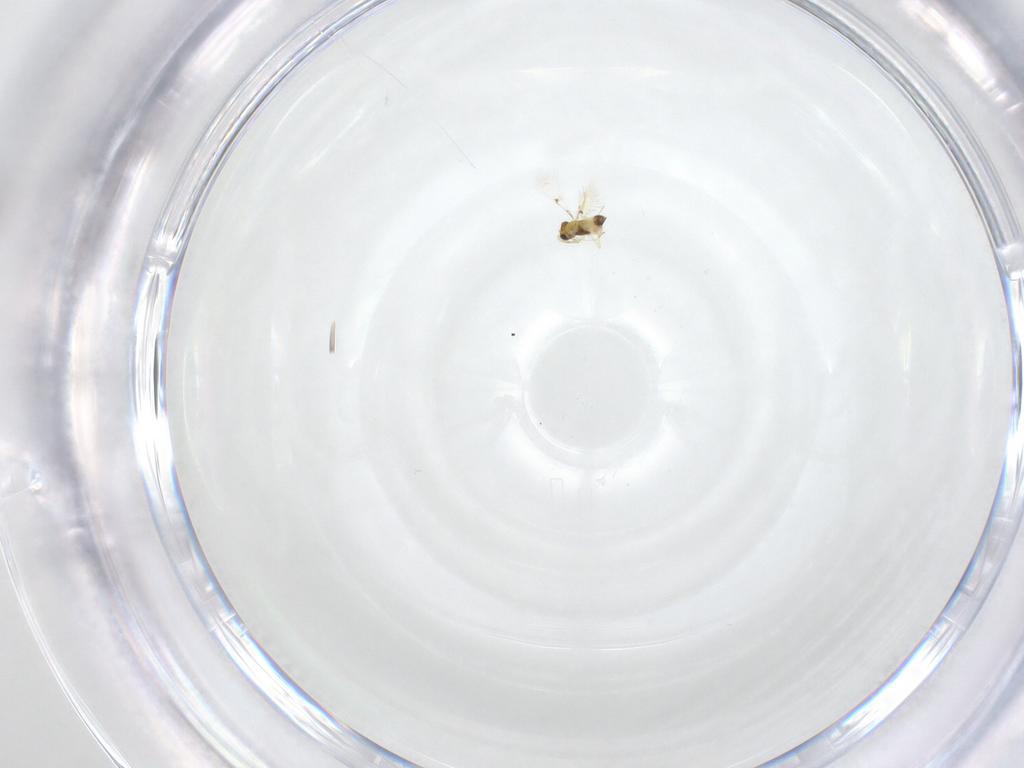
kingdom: Animalia
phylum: Arthropoda
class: Insecta
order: Hymenoptera
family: Trichogrammatidae
